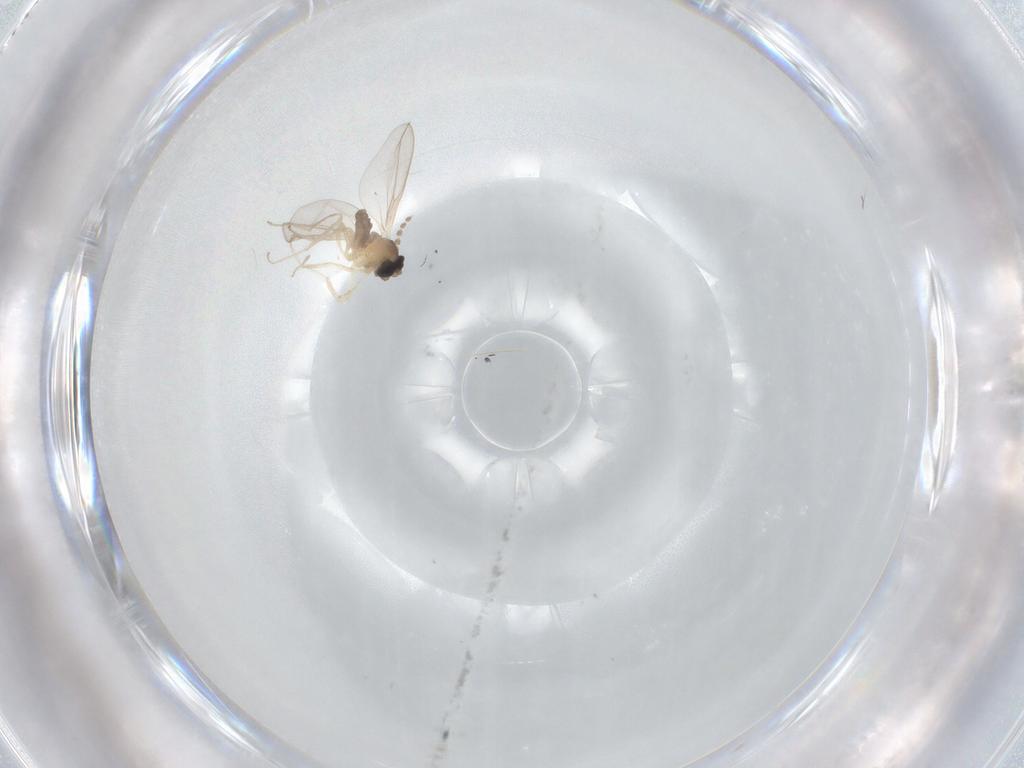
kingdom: Animalia
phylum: Arthropoda
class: Insecta
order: Diptera
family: Cecidomyiidae
